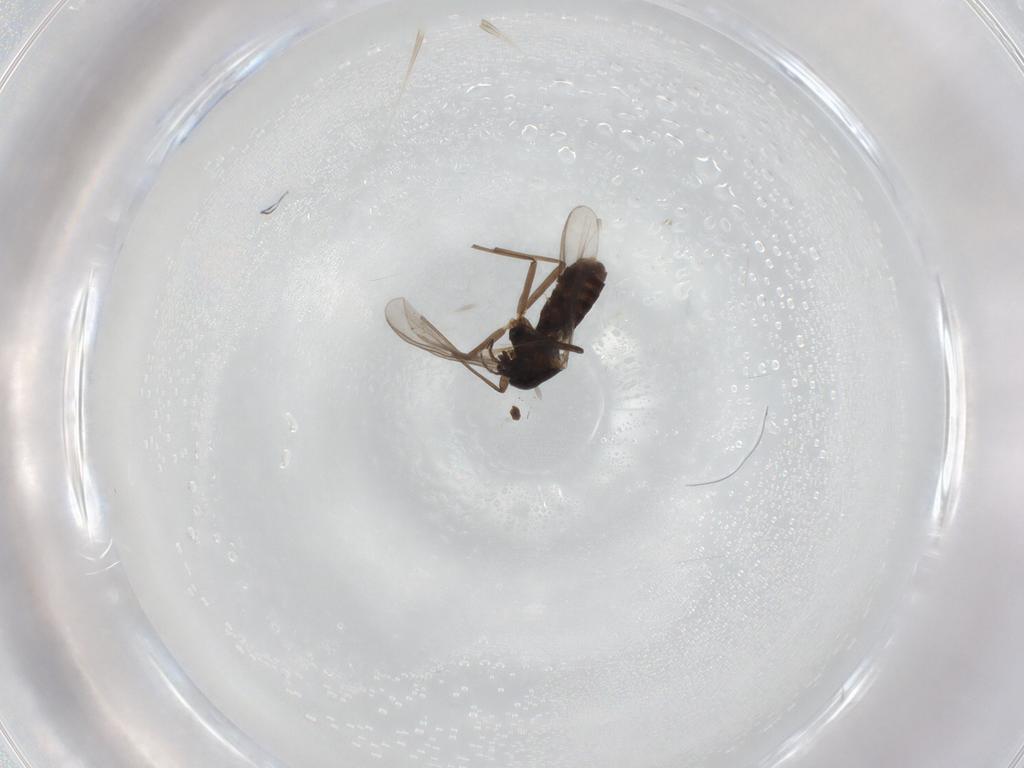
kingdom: Animalia
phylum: Arthropoda
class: Insecta
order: Diptera
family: Chironomidae
